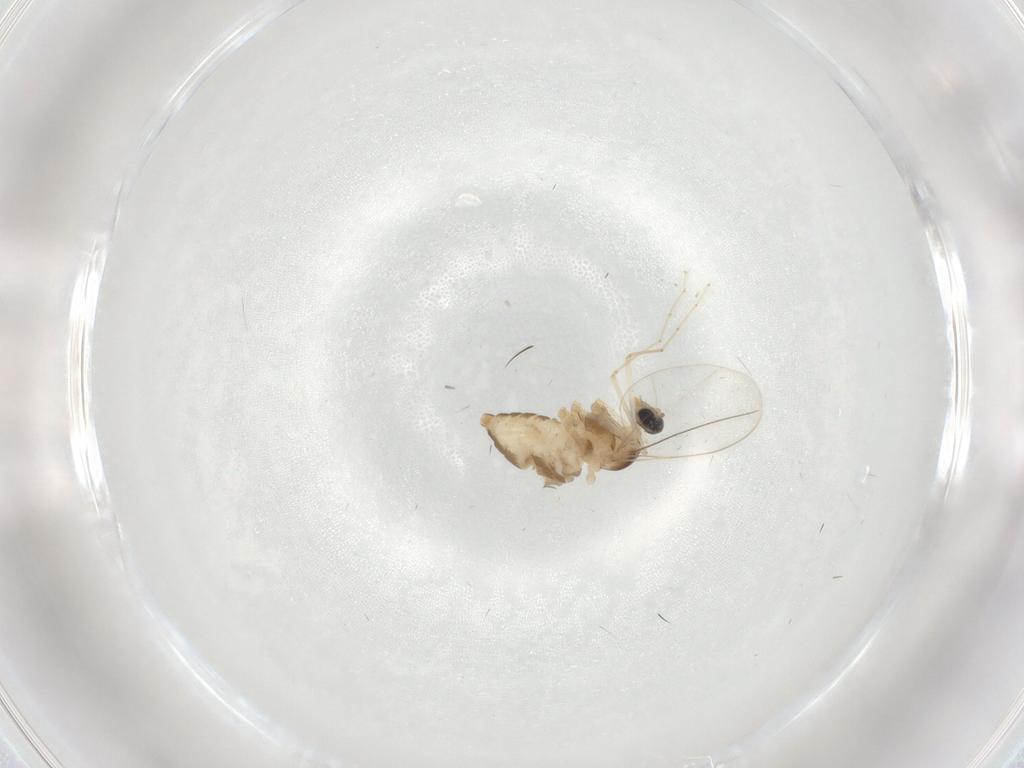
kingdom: Animalia
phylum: Arthropoda
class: Insecta
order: Diptera
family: Cecidomyiidae
